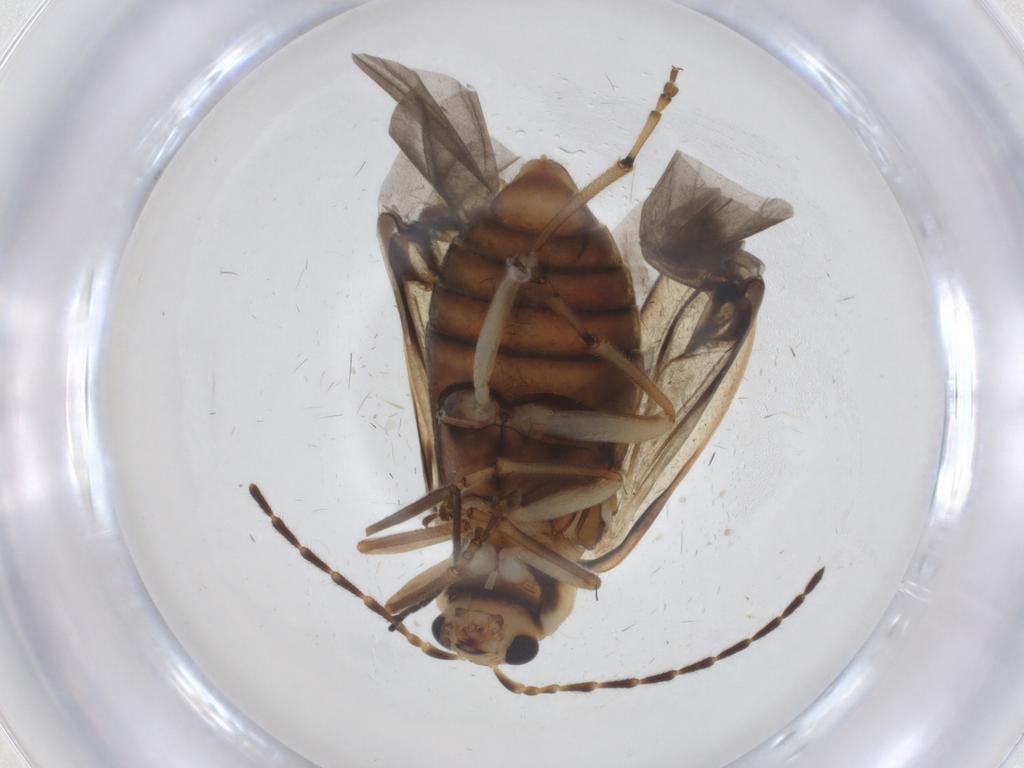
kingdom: Animalia
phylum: Arthropoda
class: Insecta
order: Coleoptera
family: Chrysomelidae
